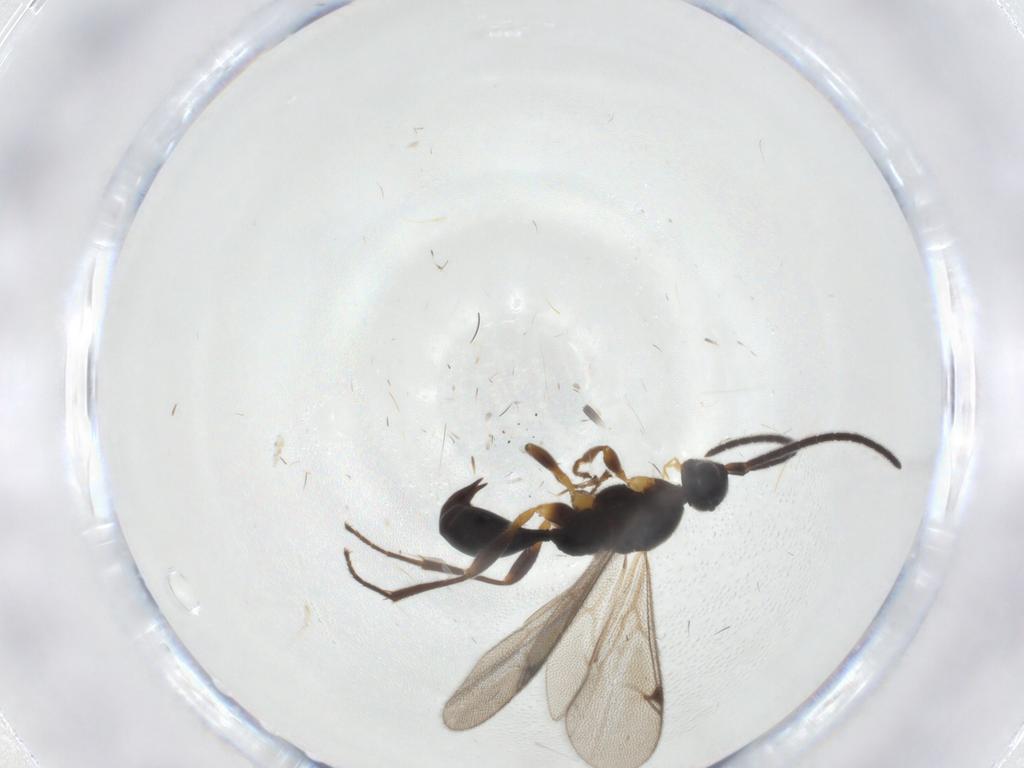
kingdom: Animalia
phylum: Arthropoda
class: Insecta
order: Hymenoptera
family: Proctotrupidae
